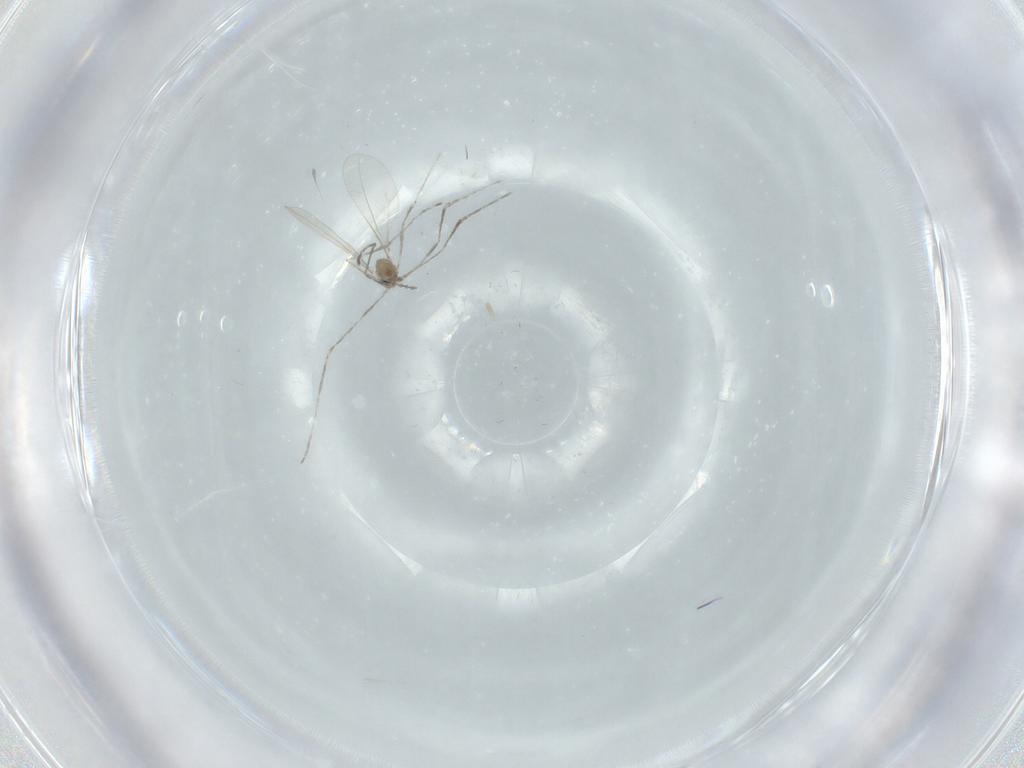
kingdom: Animalia
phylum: Arthropoda
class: Insecta
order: Diptera
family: Cecidomyiidae
